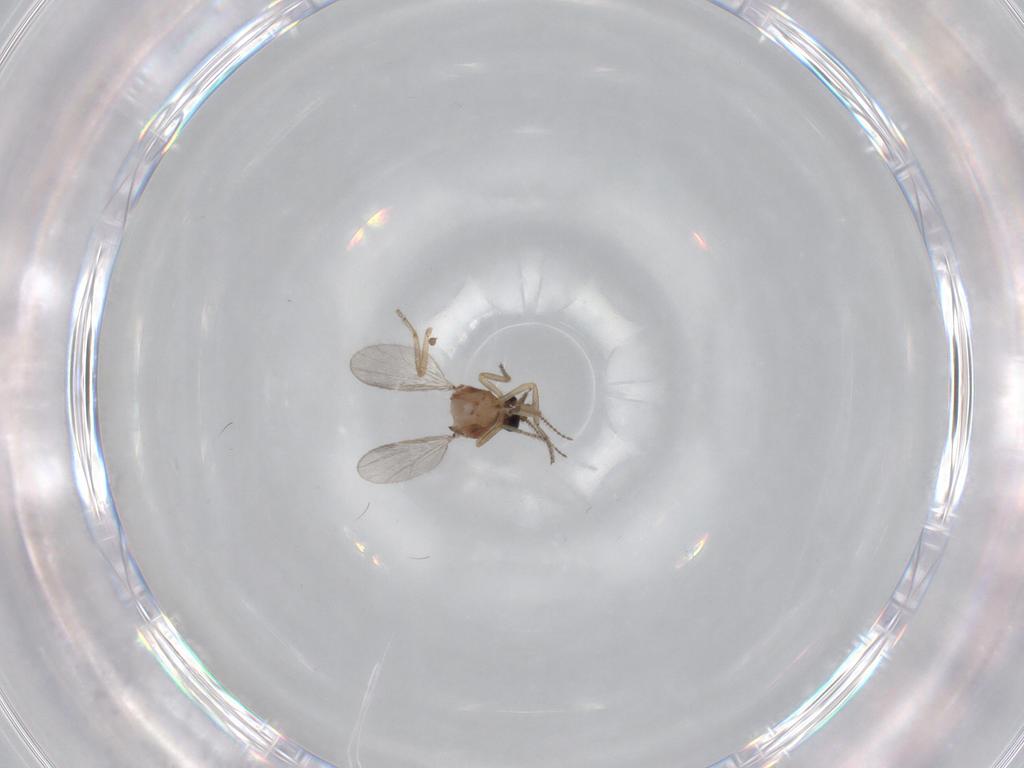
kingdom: Animalia
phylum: Arthropoda
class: Insecta
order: Diptera
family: Ceratopogonidae
